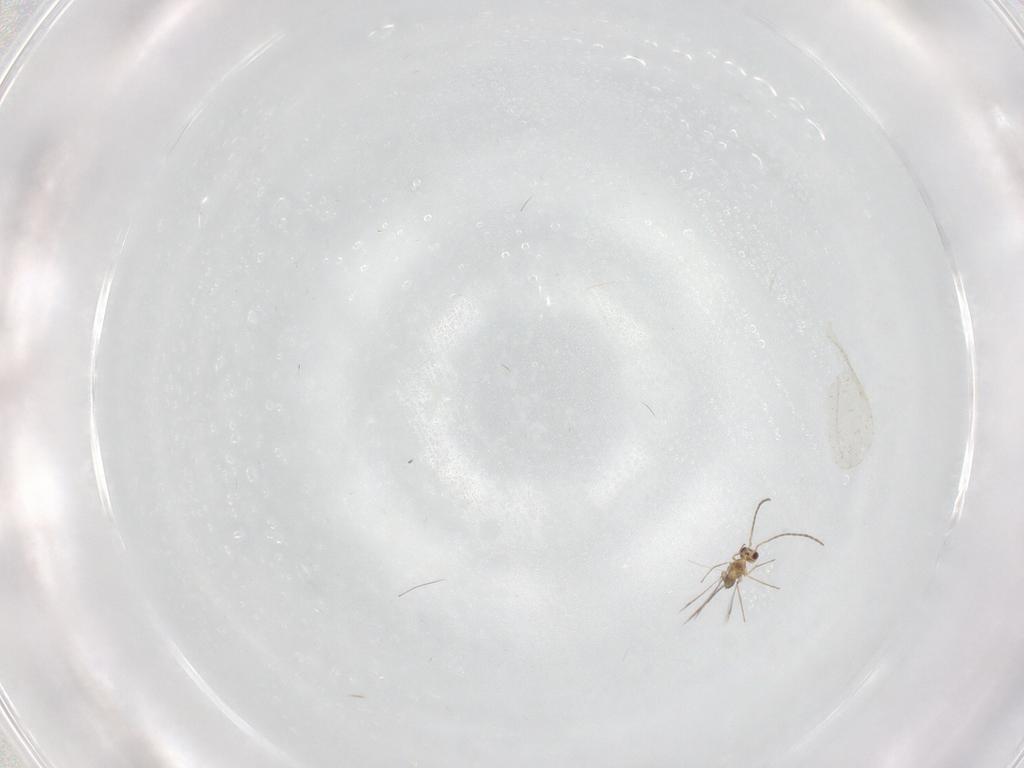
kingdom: Animalia
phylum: Arthropoda
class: Insecta
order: Hymenoptera
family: Mymaridae
